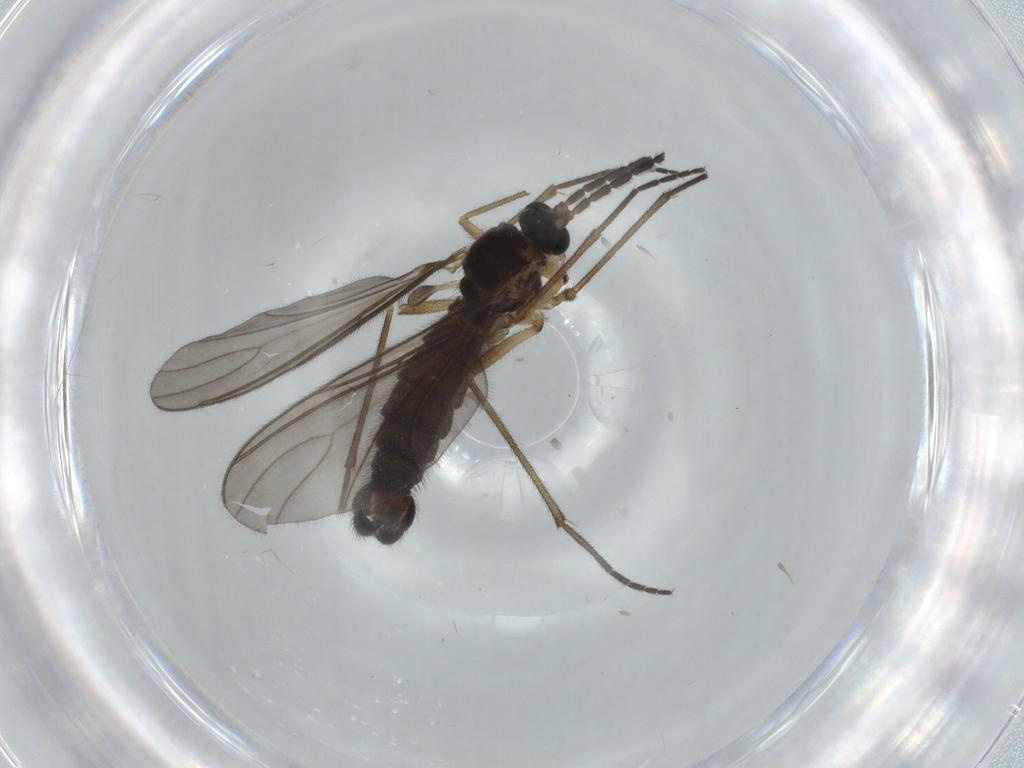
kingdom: Animalia
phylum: Arthropoda
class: Insecta
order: Diptera
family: Sciaridae
